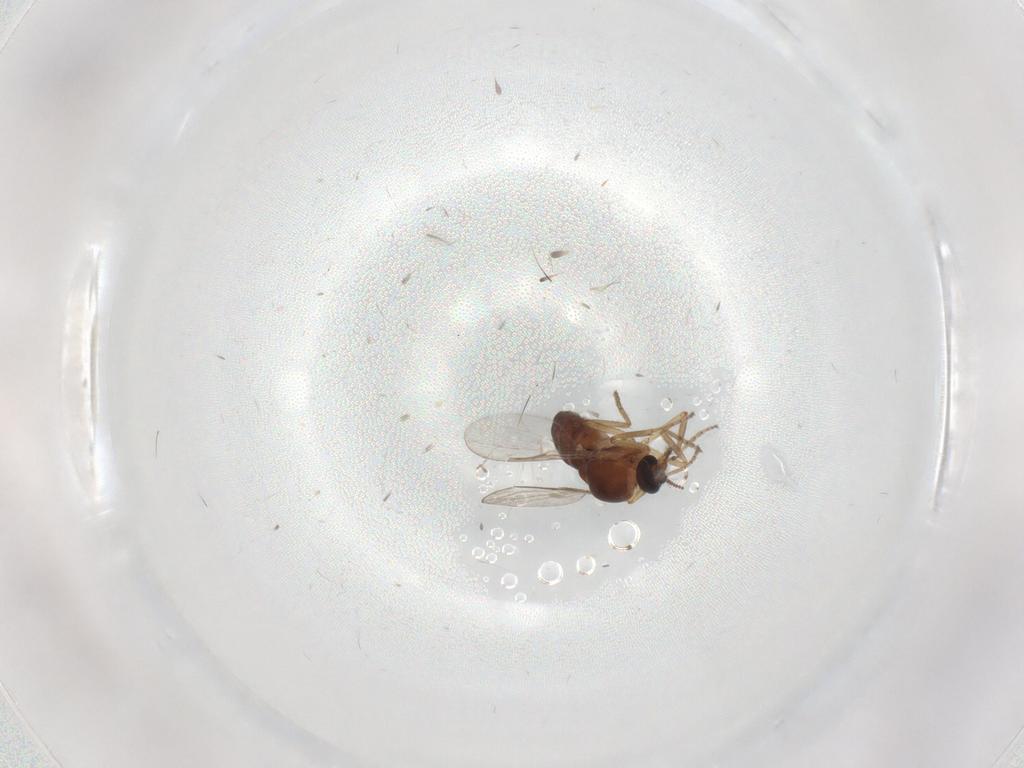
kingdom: Animalia
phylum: Arthropoda
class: Insecta
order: Diptera
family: Ceratopogonidae
